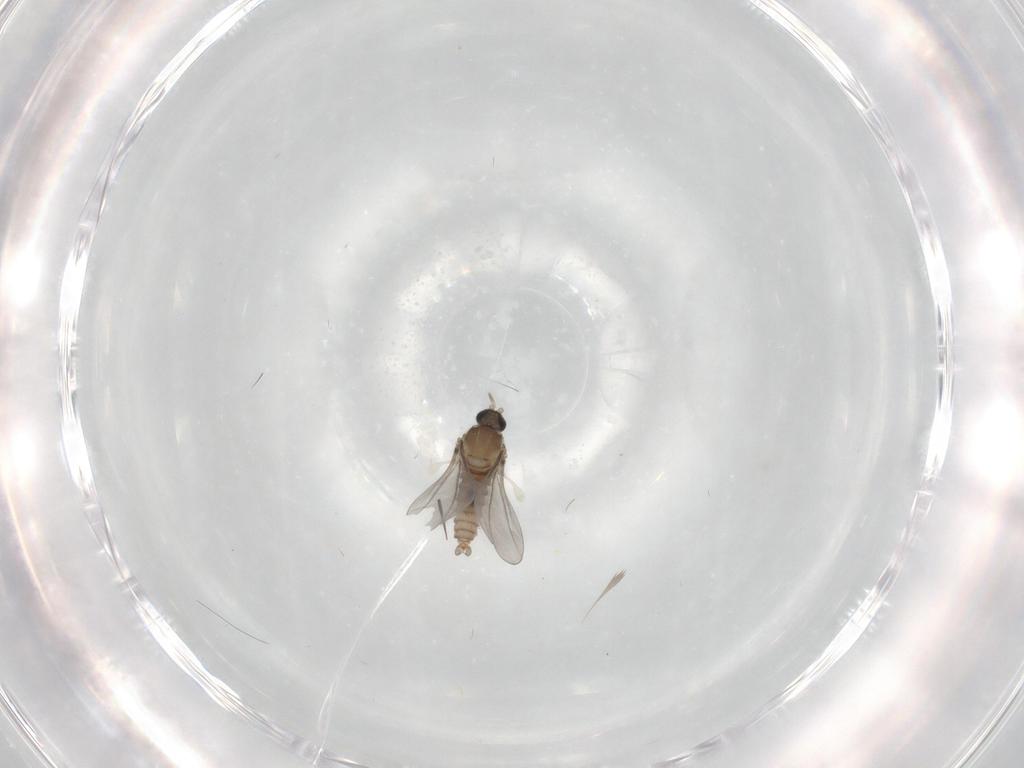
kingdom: Animalia
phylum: Arthropoda
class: Insecta
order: Diptera
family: Cecidomyiidae
